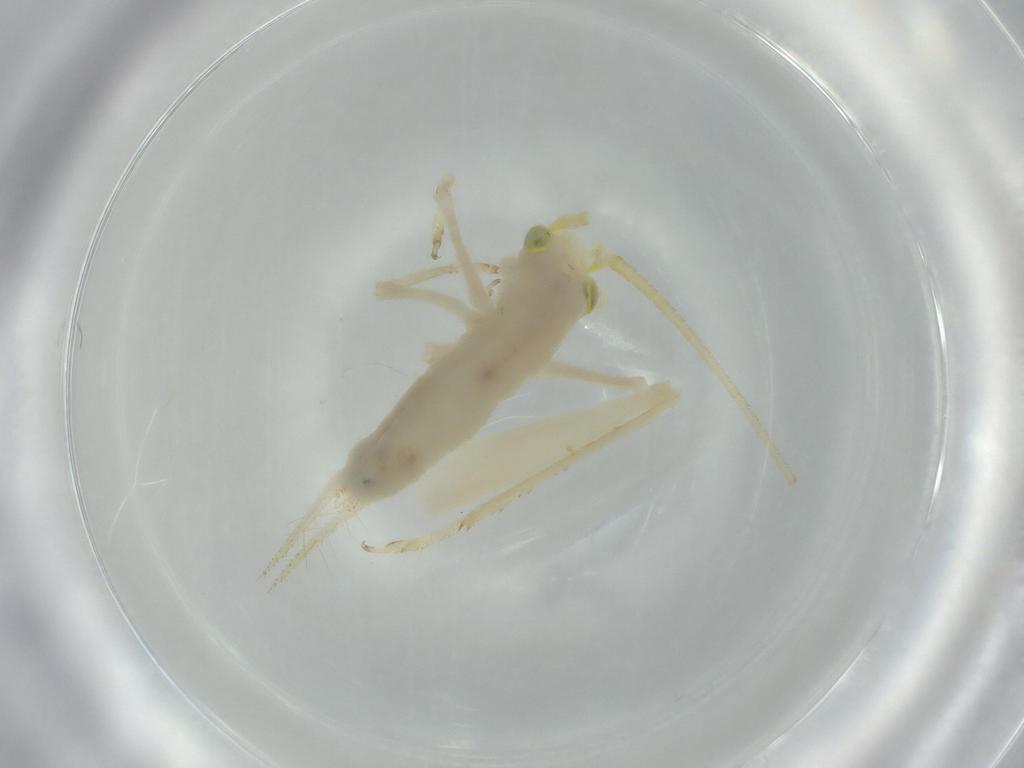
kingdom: Animalia
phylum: Arthropoda
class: Insecta
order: Orthoptera
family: Trigonidiidae
